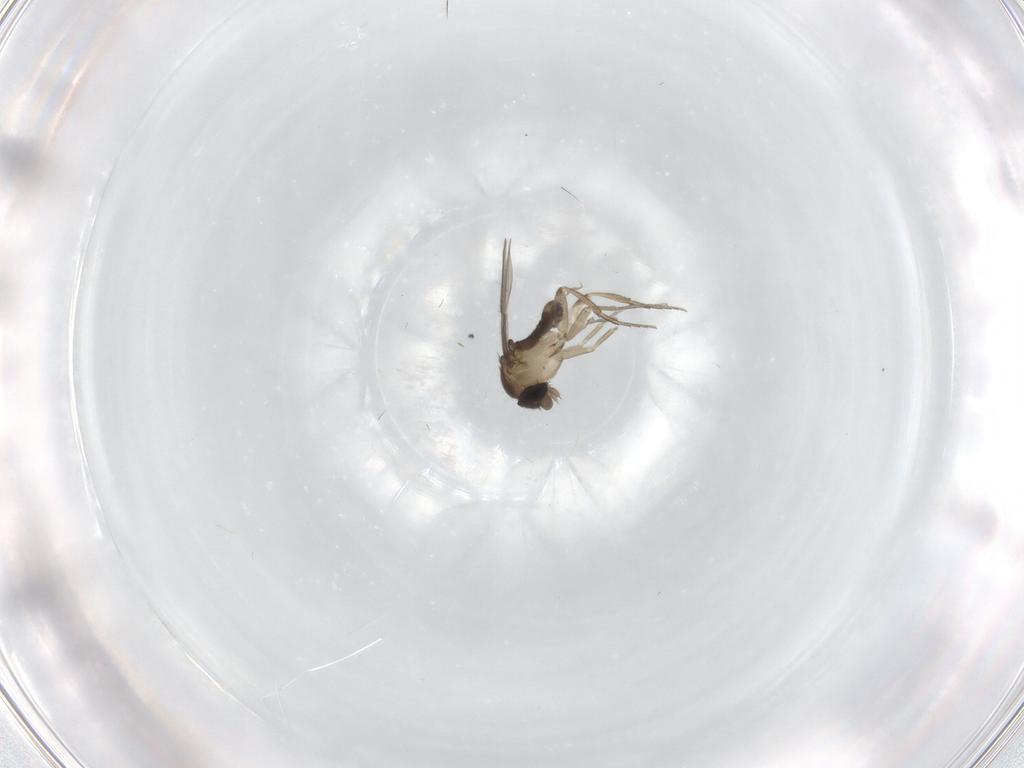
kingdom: Animalia
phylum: Arthropoda
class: Insecta
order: Diptera
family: Phoridae
